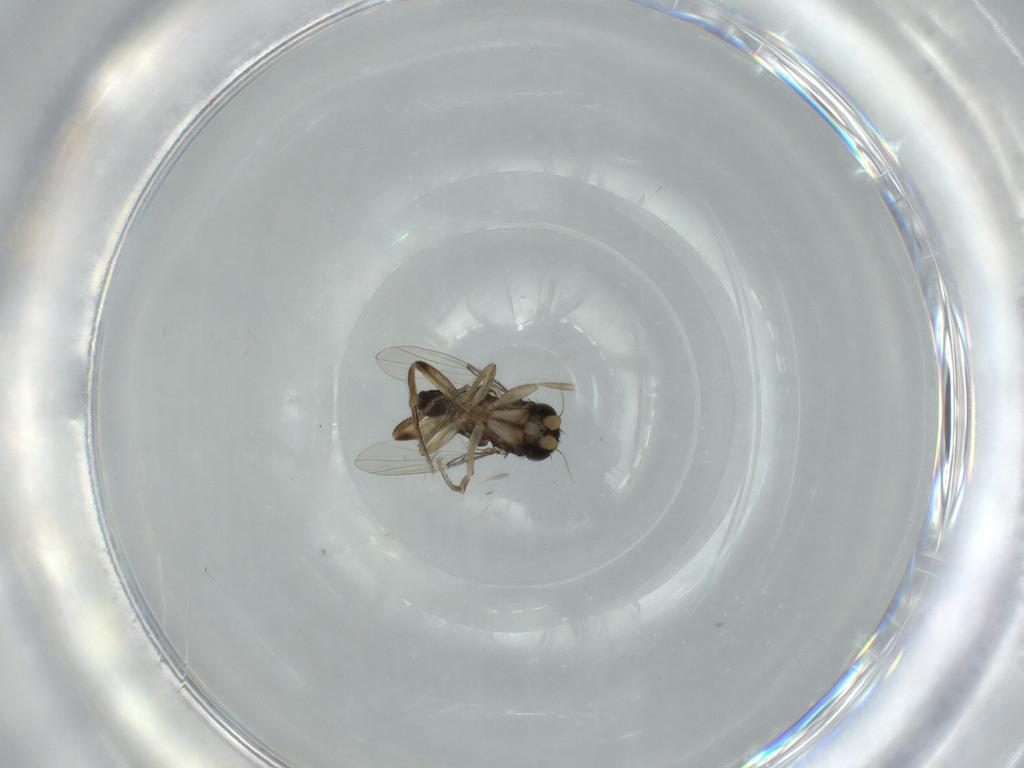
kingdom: Animalia
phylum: Arthropoda
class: Insecta
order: Diptera
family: Phoridae
